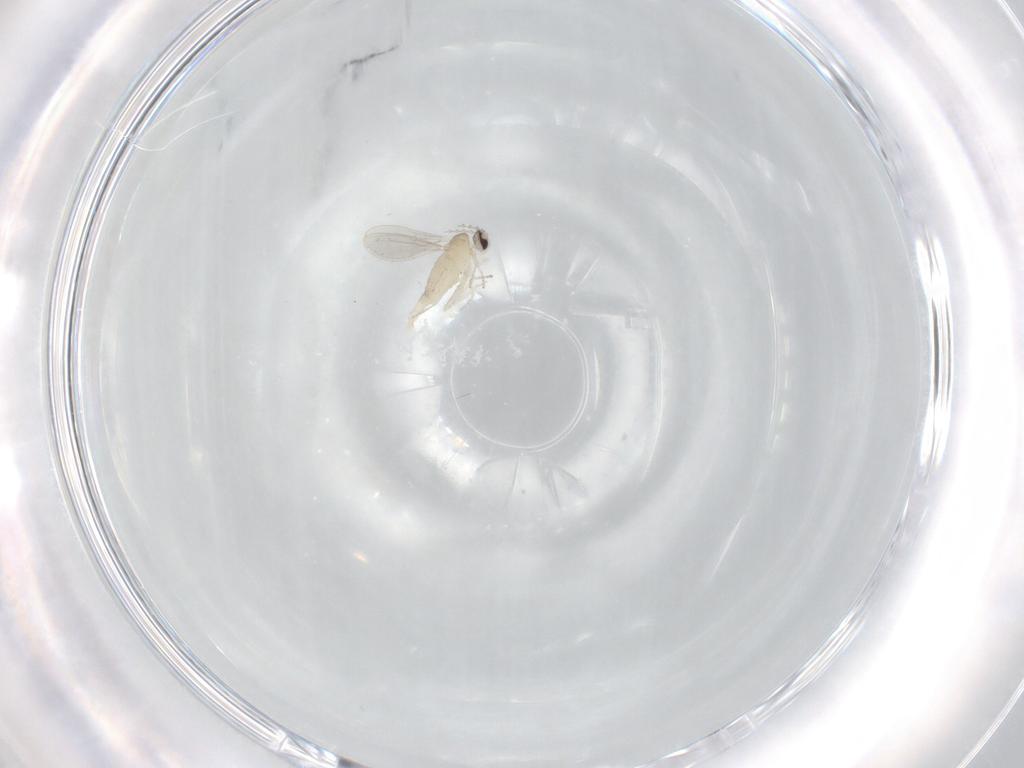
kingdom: Animalia
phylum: Arthropoda
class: Insecta
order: Diptera
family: Cecidomyiidae
